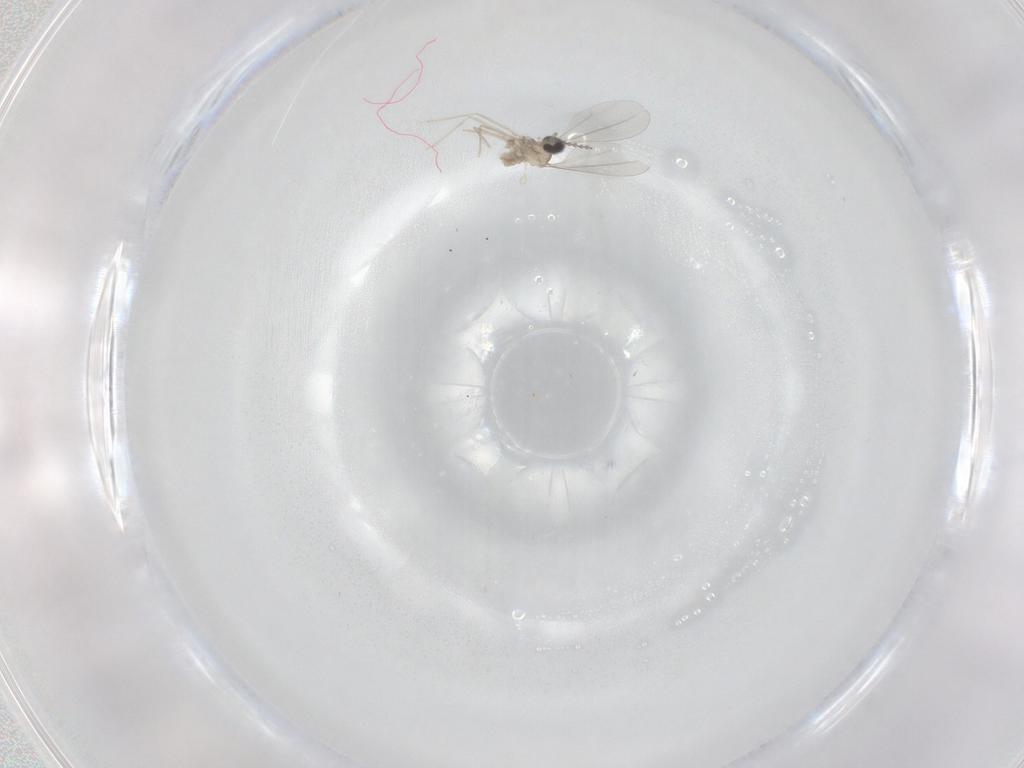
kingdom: Animalia
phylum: Arthropoda
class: Insecta
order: Diptera
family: Cecidomyiidae
